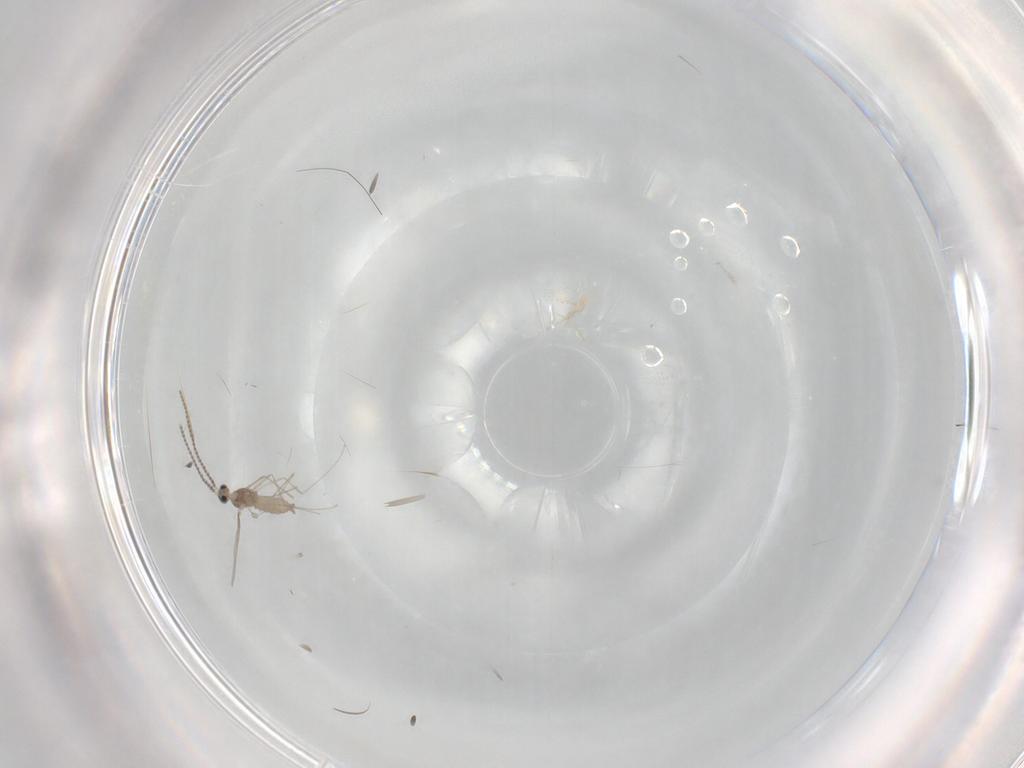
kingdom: Animalia
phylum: Arthropoda
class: Insecta
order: Diptera
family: Cecidomyiidae
